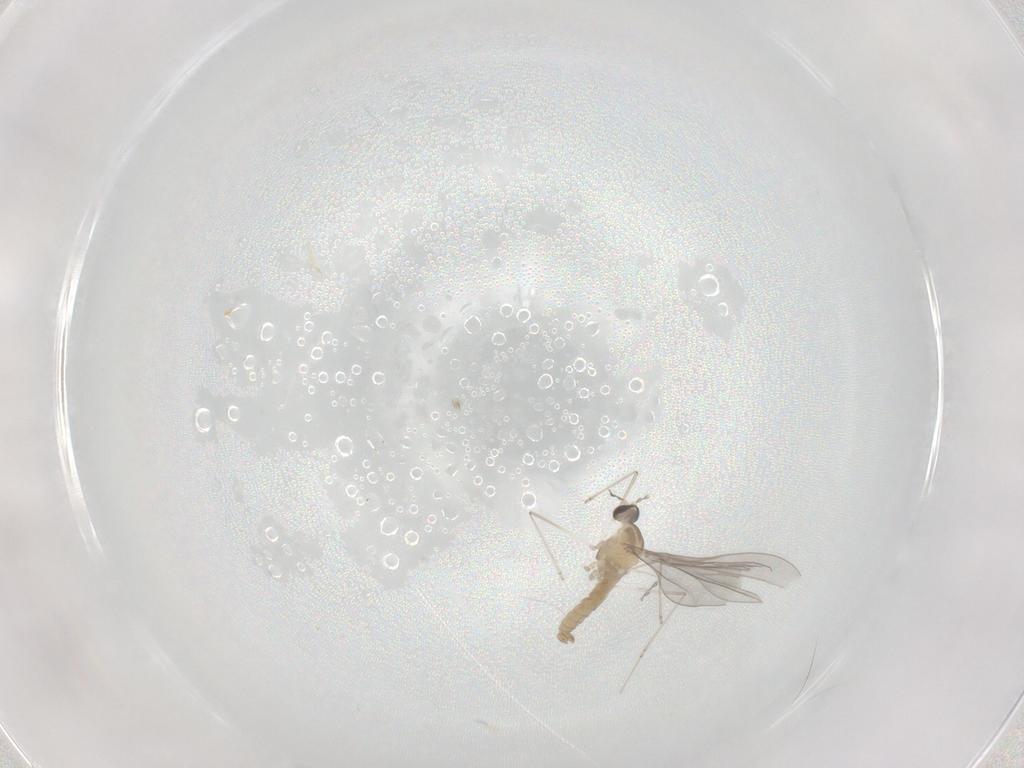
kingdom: Animalia
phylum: Arthropoda
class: Insecta
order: Diptera
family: Cecidomyiidae
